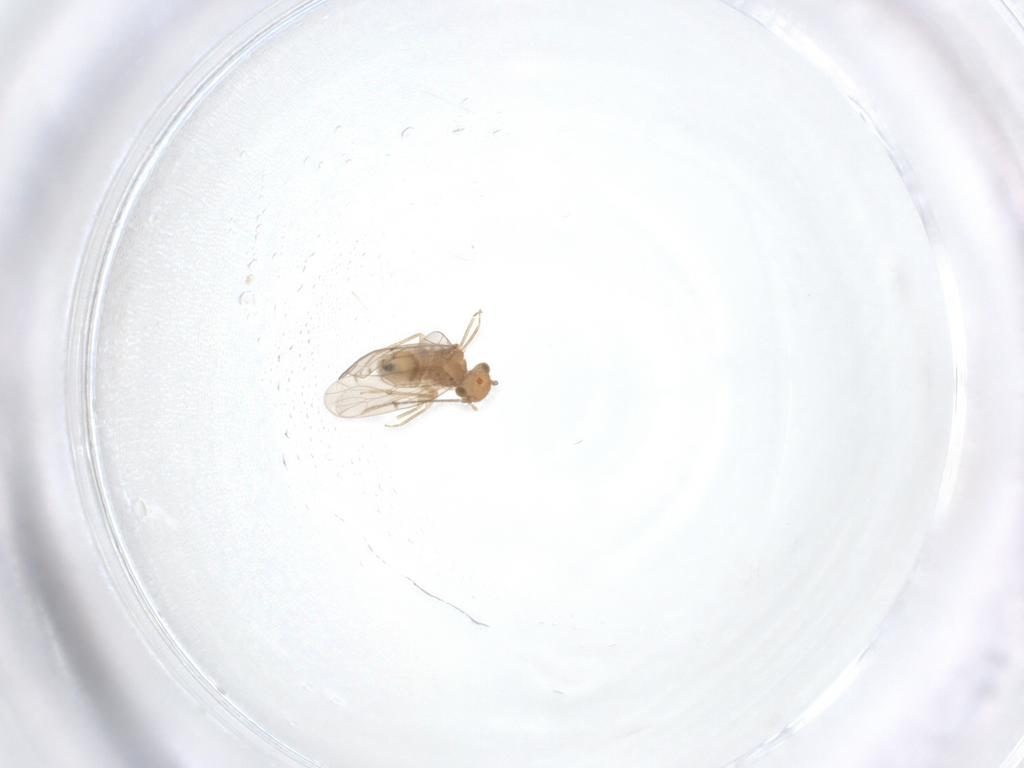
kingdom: Animalia
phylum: Arthropoda
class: Insecta
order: Psocodea
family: Ectopsocidae
